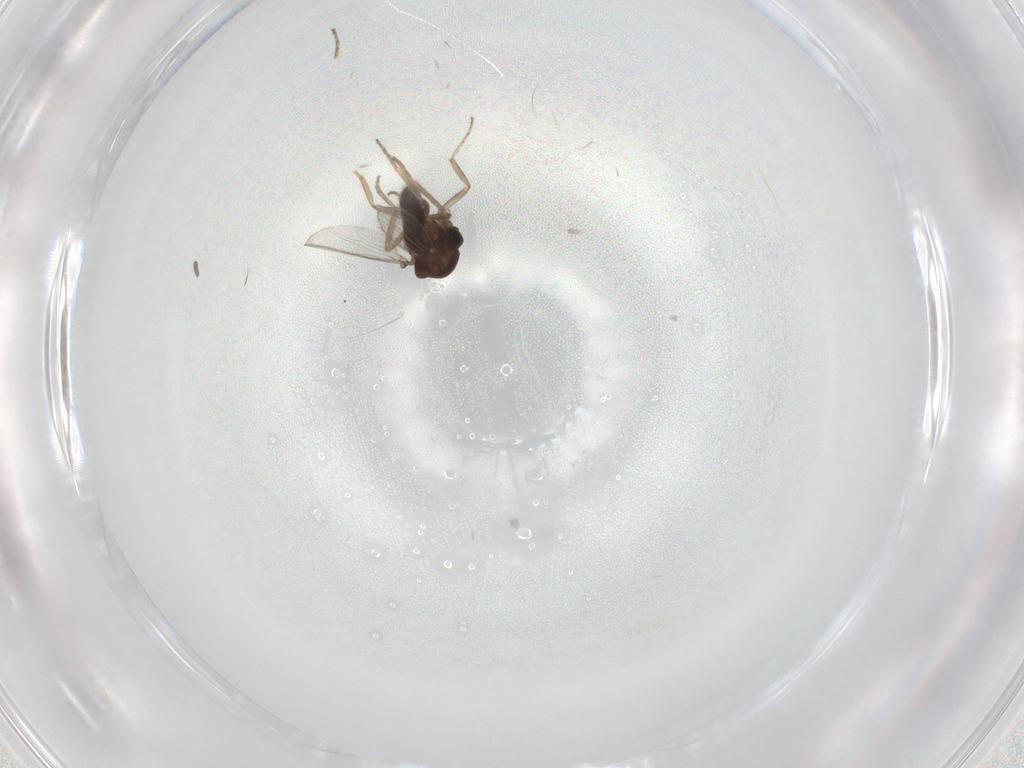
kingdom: Animalia
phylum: Arthropoda
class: Insecta
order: Diptera
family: Ceratopogonidae
